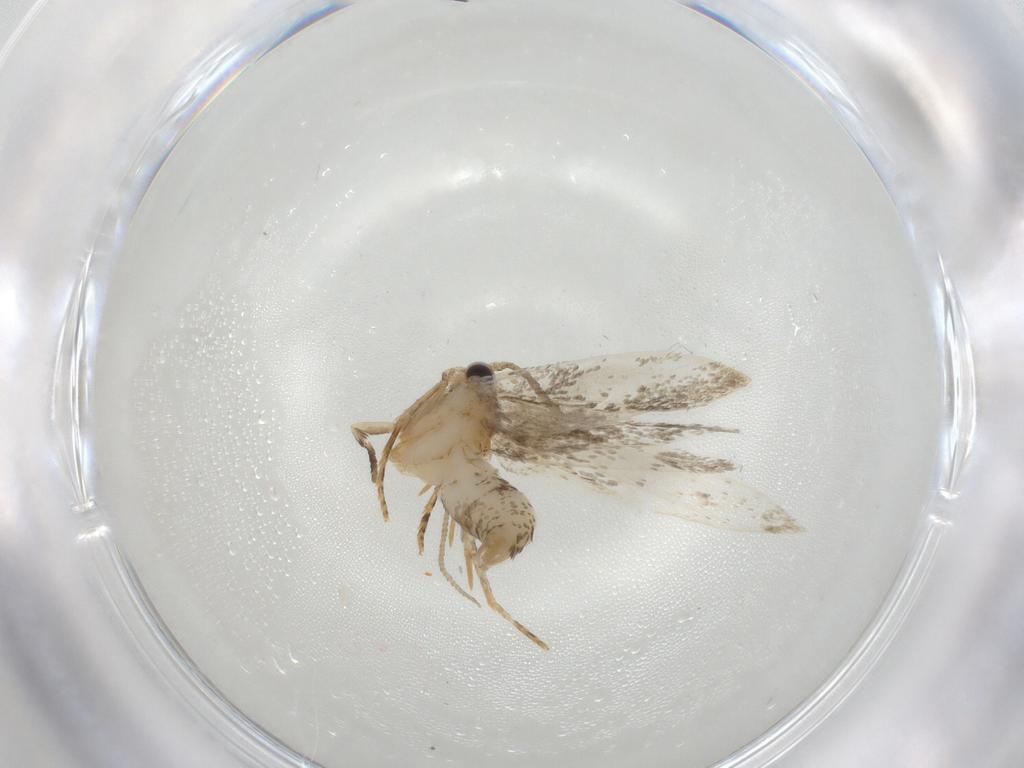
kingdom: Animalia
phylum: Arthropoda
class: Insecta
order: Lepidoptera
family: Tineidae
